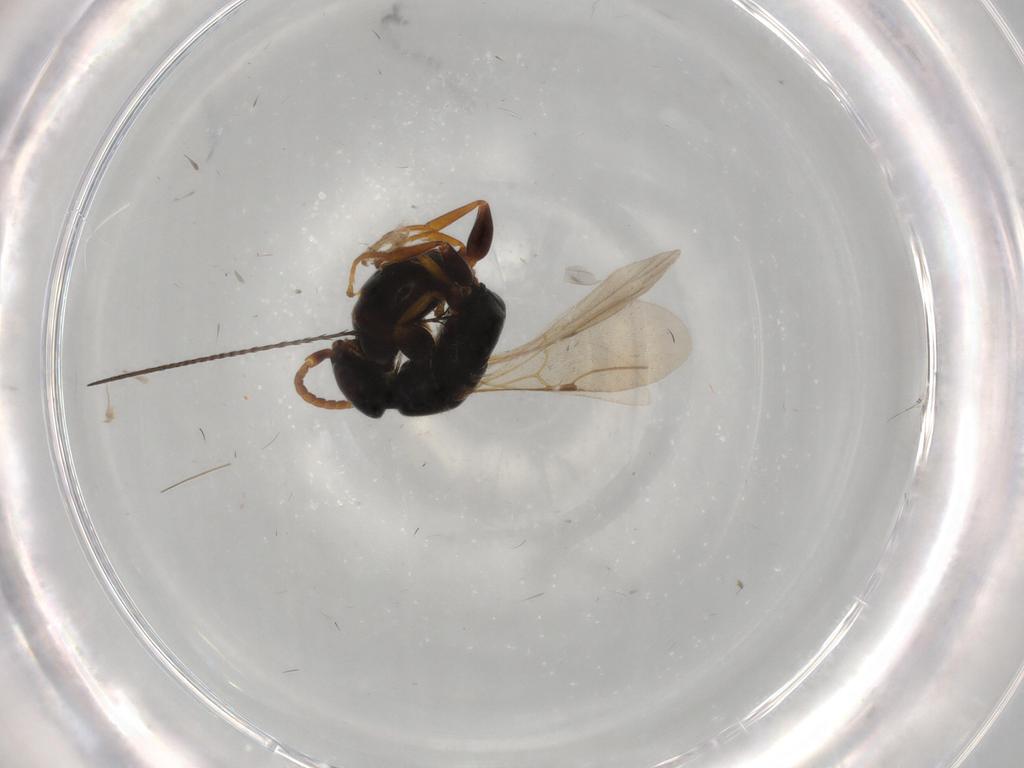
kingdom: Animalia
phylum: Arthropoda
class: Insecta
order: Hymenoptera
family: Bethylidae
